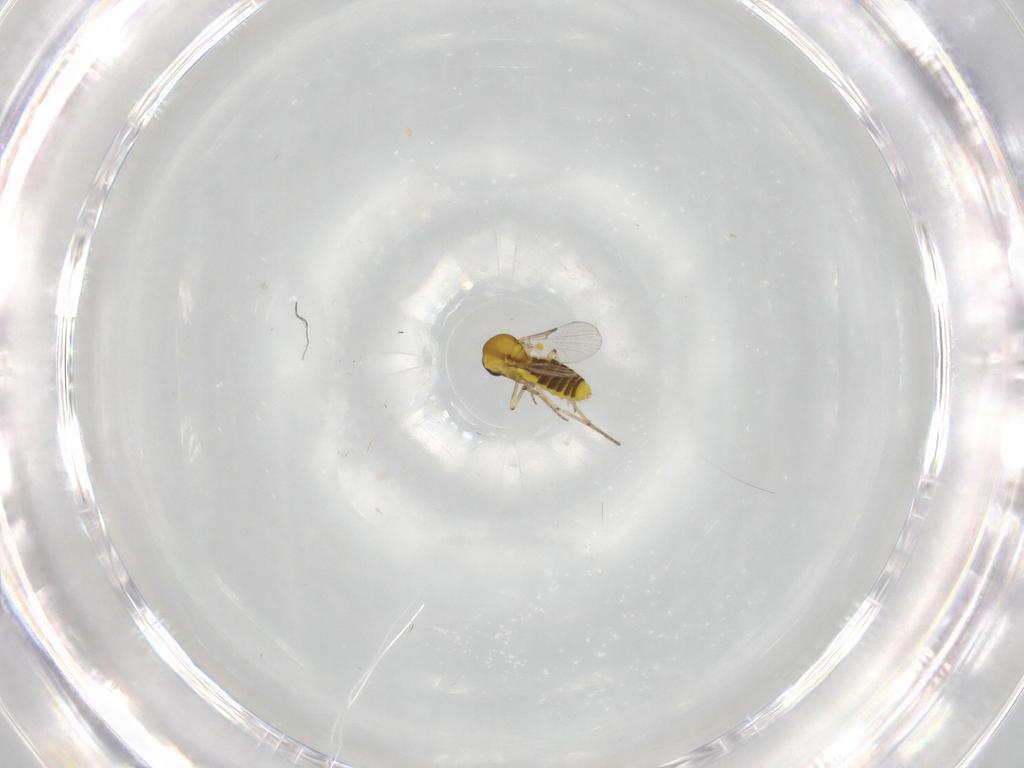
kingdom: Animalia
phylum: Arthropoda
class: Insecta
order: Diptera
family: Ceratopogonidae
